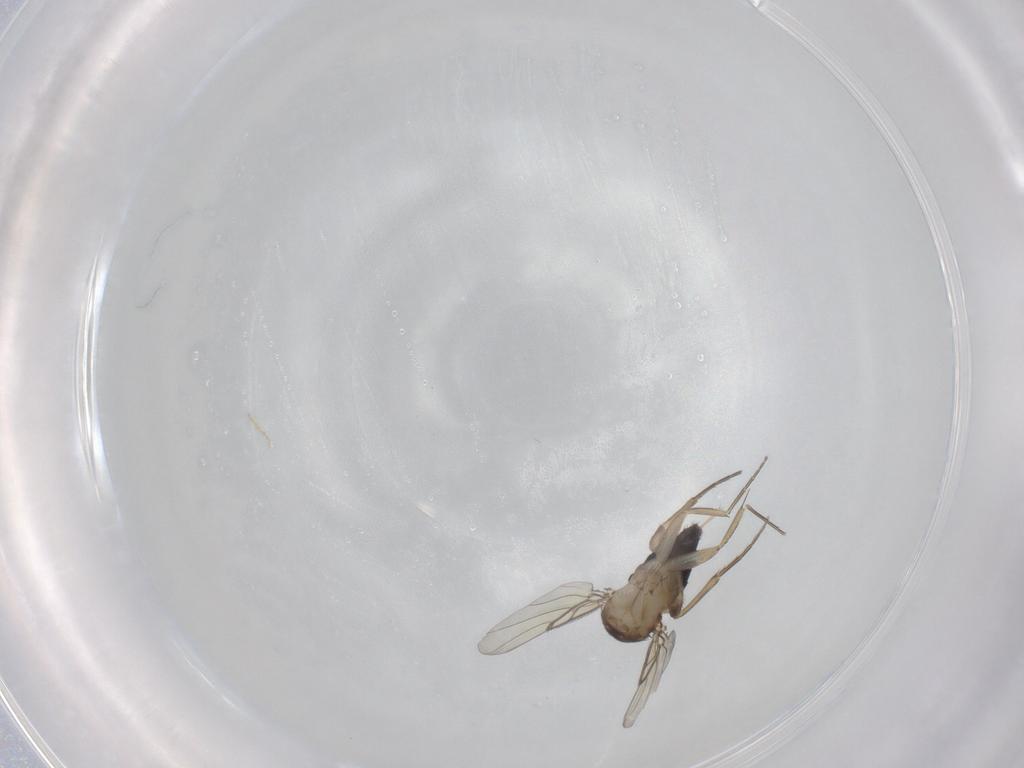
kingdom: Animalia
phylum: Arthropoda
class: Insecta
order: Diptera
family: Phoridae
